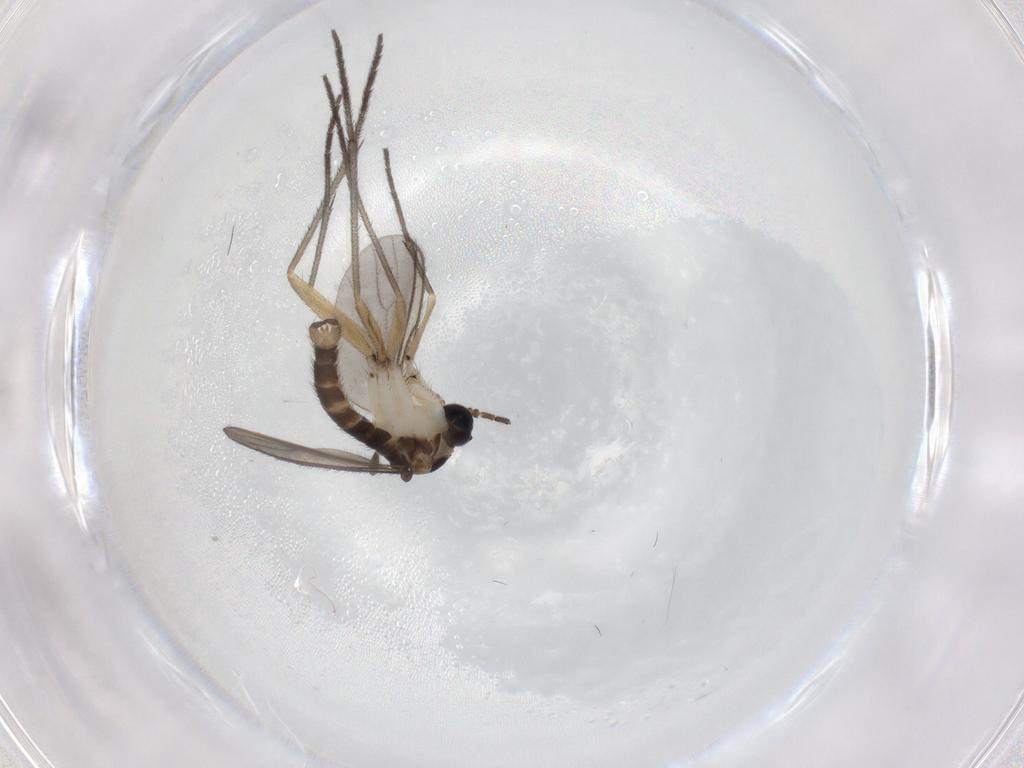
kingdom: Animalia
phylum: Arthropoda
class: Insecta
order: Diptera
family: Sciaridae
